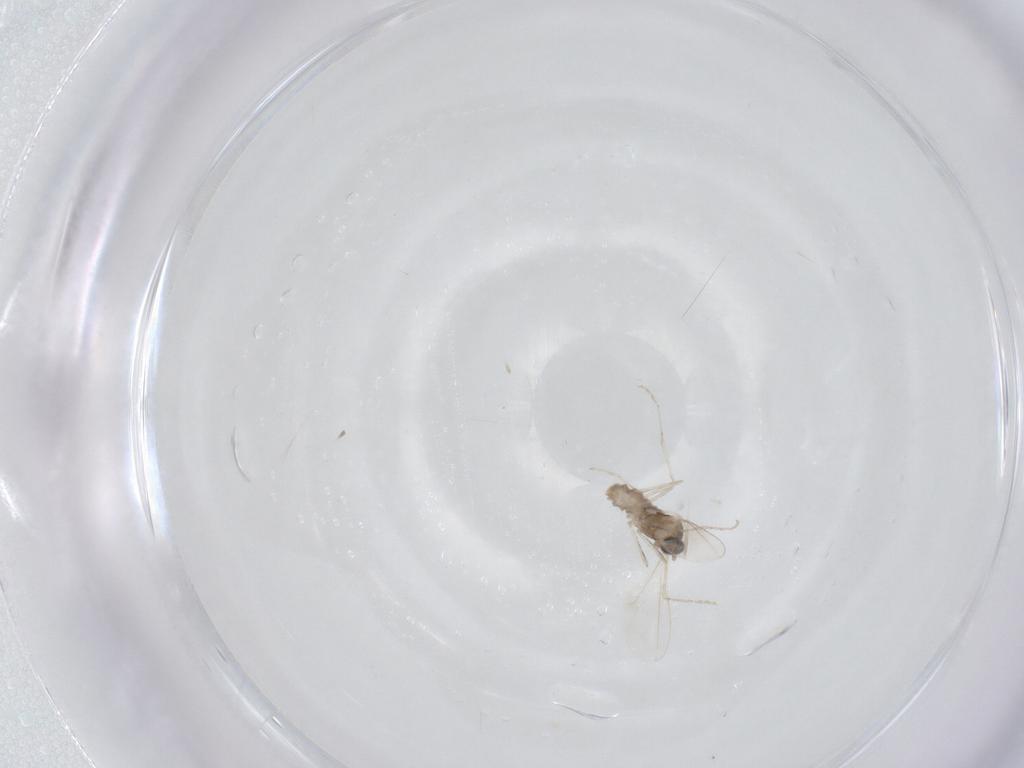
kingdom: Animalia
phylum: Arthropoda
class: Insecta
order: Diptera
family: Cecidomyiidae
